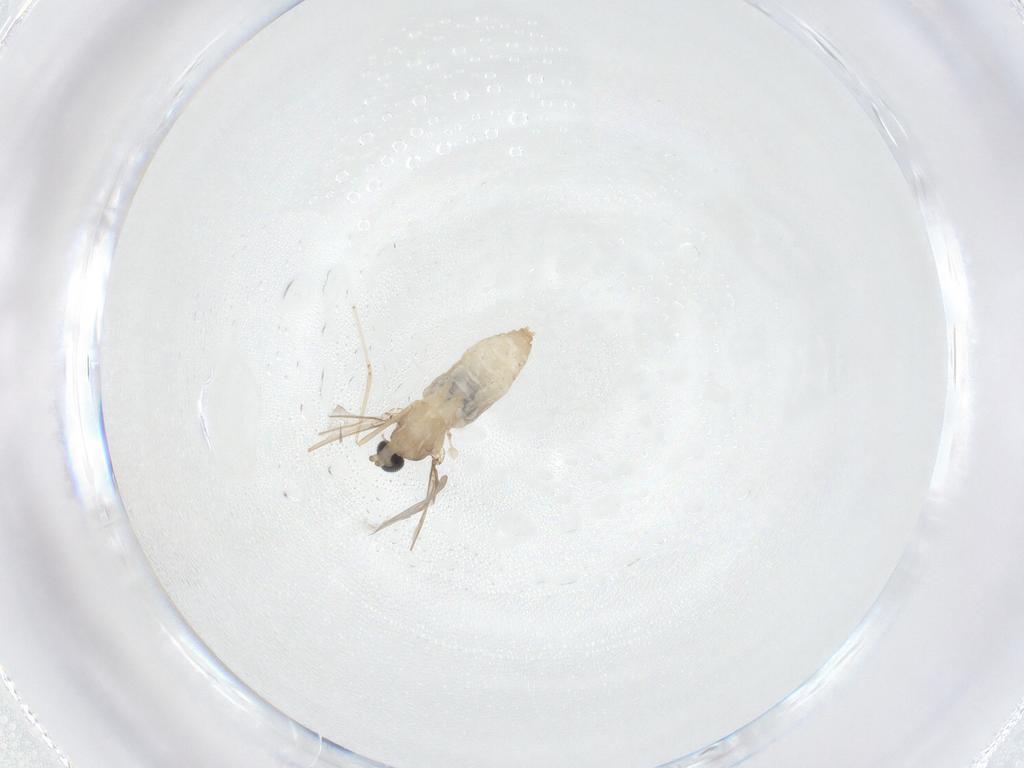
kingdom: Animalia
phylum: Arthropoda
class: Insecta
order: Diptera
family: Cecidomyiidae
